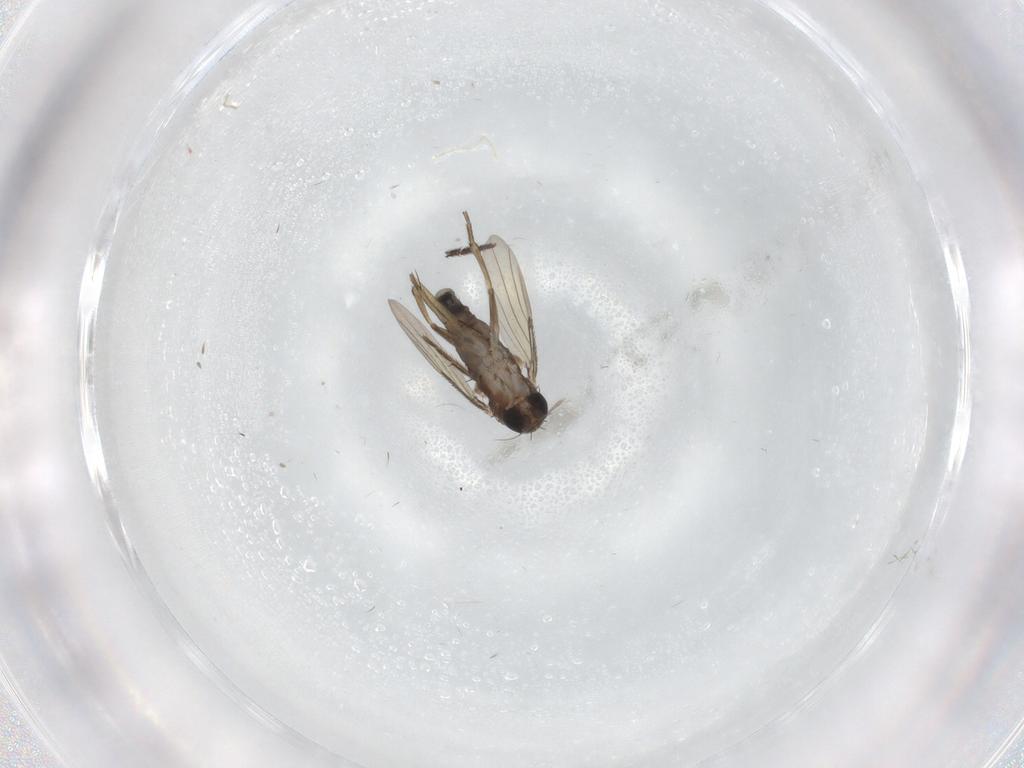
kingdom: Animalia
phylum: Arthropoda
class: Insecta
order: Diptera
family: Phoridae
